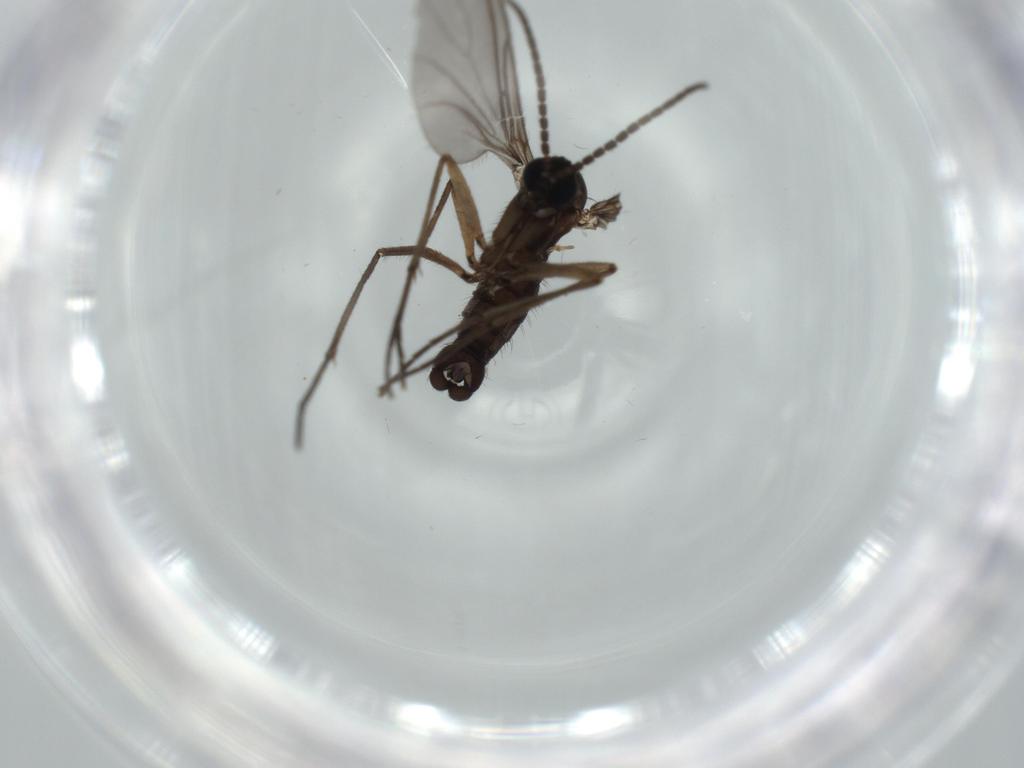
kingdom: Animalia
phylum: Arthropoda
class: Insecta
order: Diptera
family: Sciaridae
